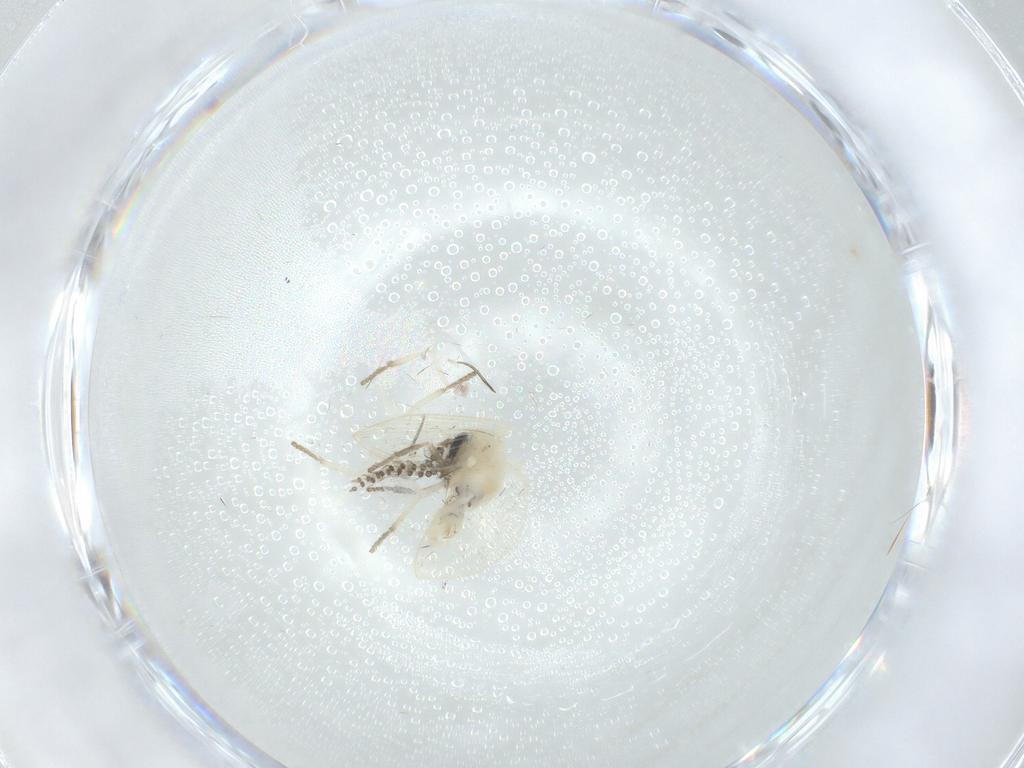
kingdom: Animalia
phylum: Arthropoda
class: Insecta
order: Diptera
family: Psychodidae
